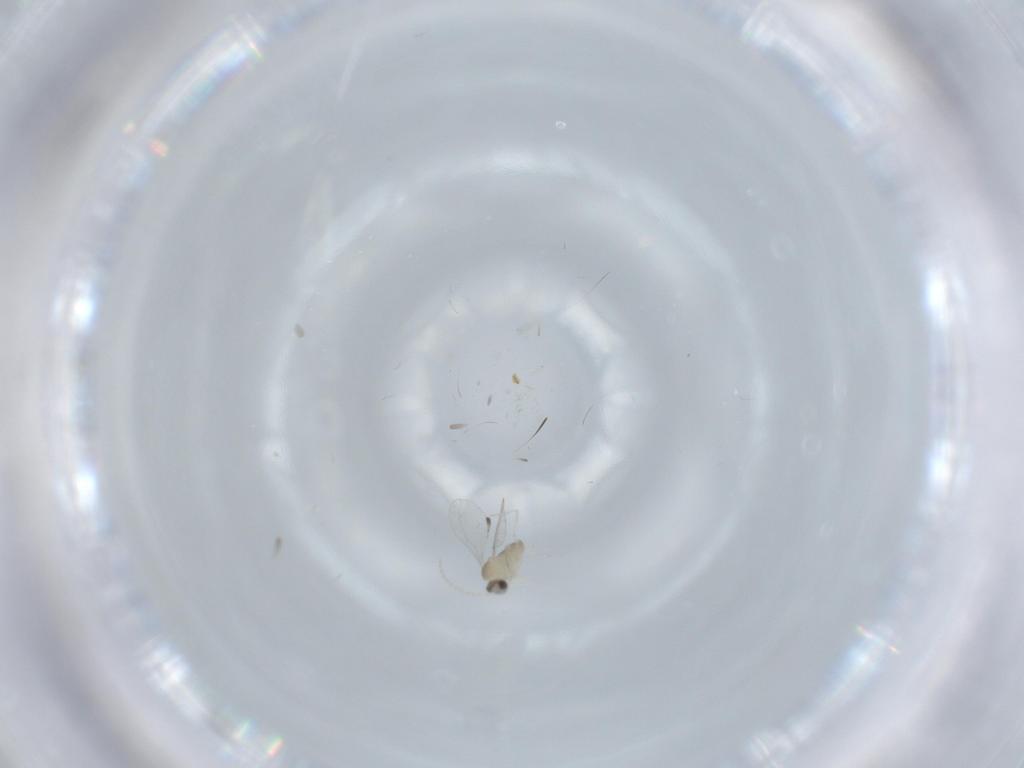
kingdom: Animalia
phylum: Arthropoda
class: Insecta
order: Diptera
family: Cecidomyiidae
